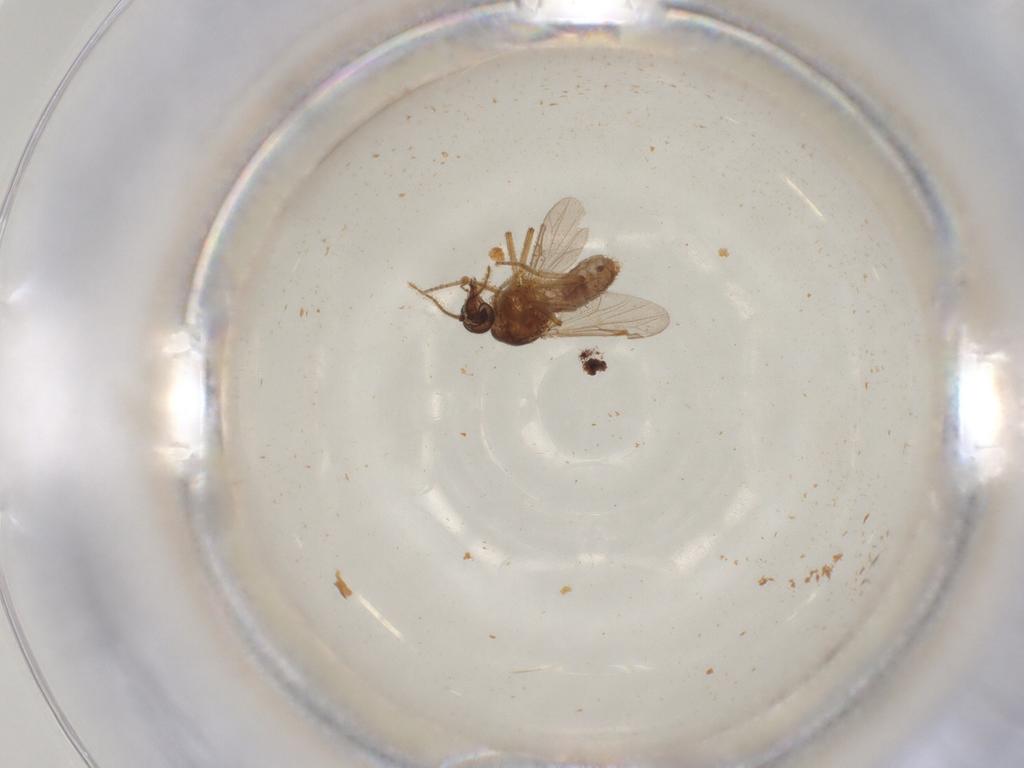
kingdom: Animalia
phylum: Arthropoda
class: Insecta
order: Diptera
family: Ceratopogonidae
